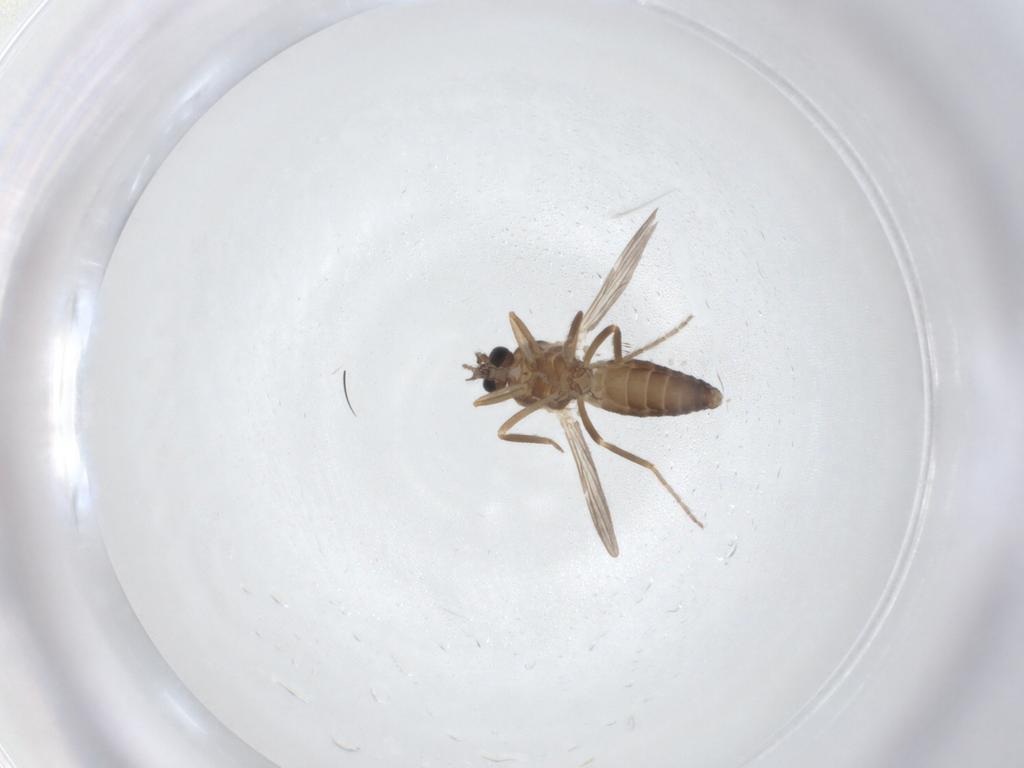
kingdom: Animalia
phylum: Arthropoda
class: Insecta
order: Diptera
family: Ceratopogonidae
